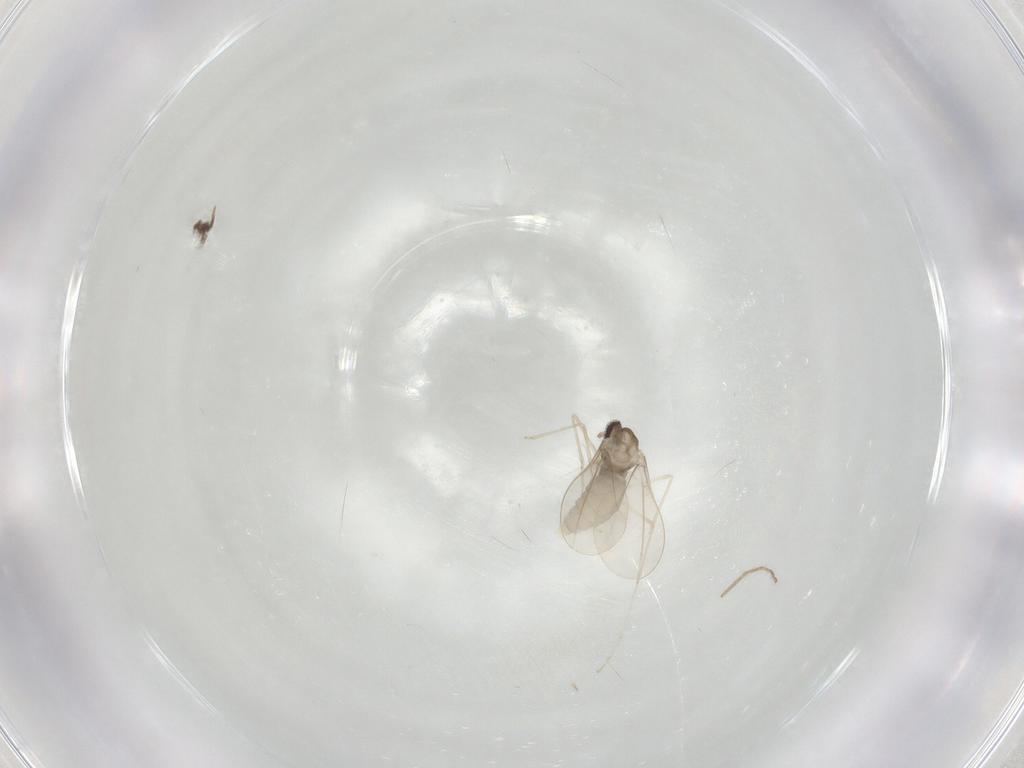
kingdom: Animalia
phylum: Arthropoda
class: Insecta
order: Diptera
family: Cecidomyiidae
